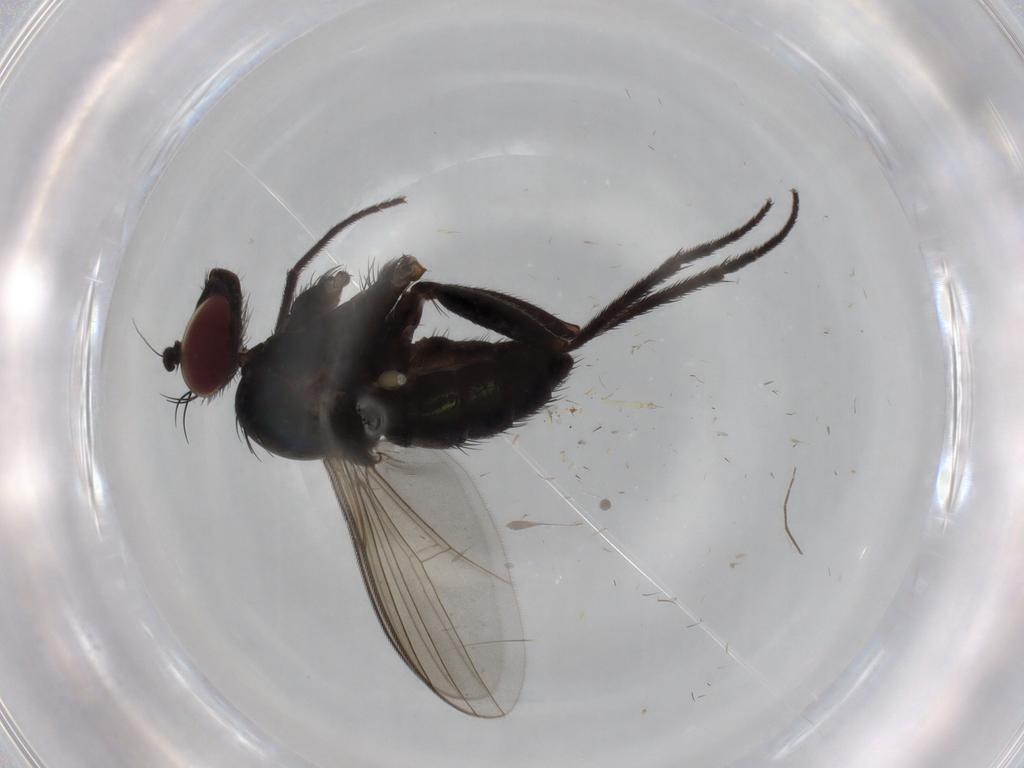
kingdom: Animalia
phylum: Arthropoda
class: Insecta
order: Diptera
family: Dolichopodidae
